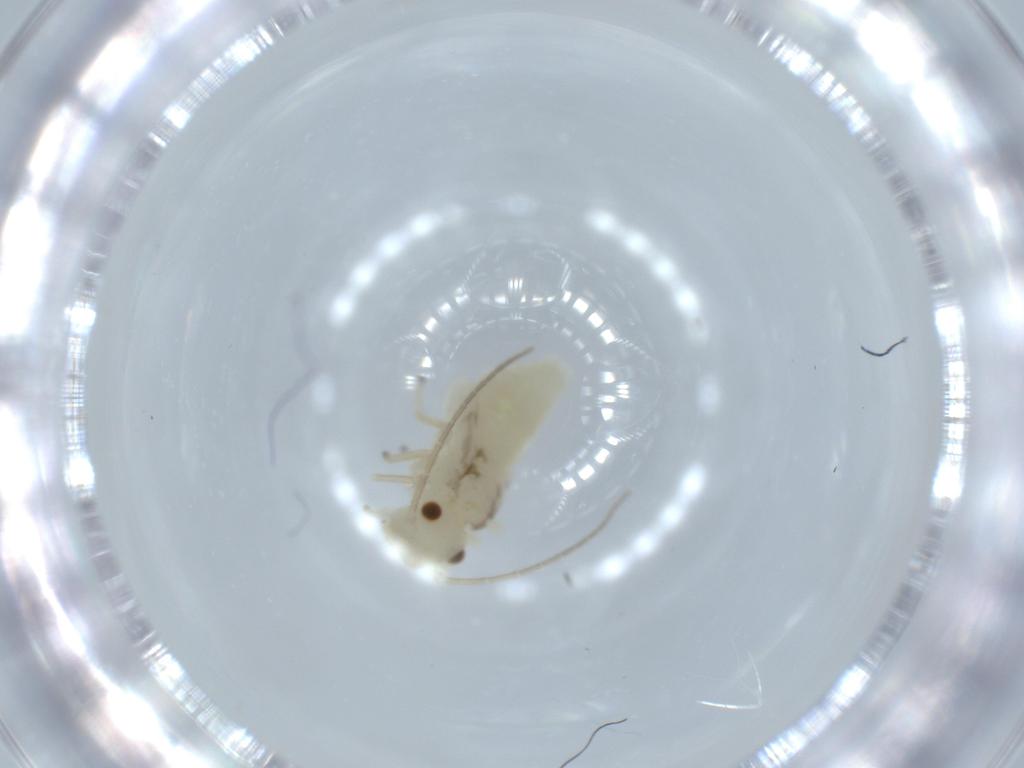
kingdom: Animalia
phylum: Arthropoda
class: Insecta
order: Psocodea
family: Caeciliusidae
